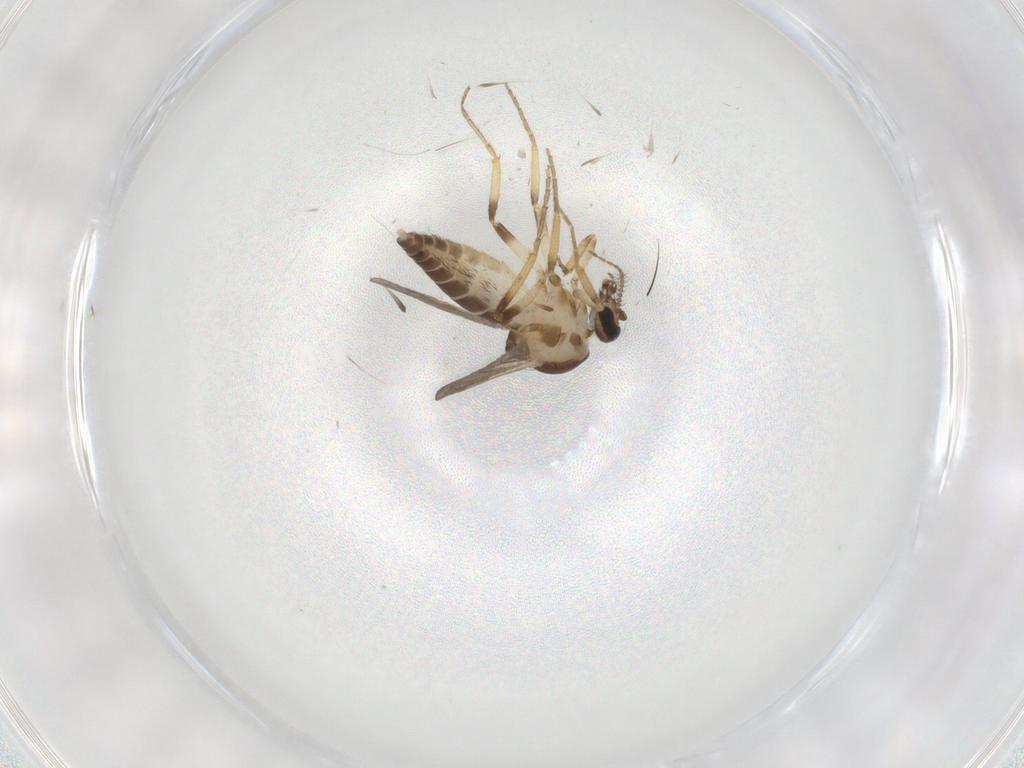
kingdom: Animalia
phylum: Arthropoda
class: Insecta
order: Diptera
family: Ceratopogonidae
